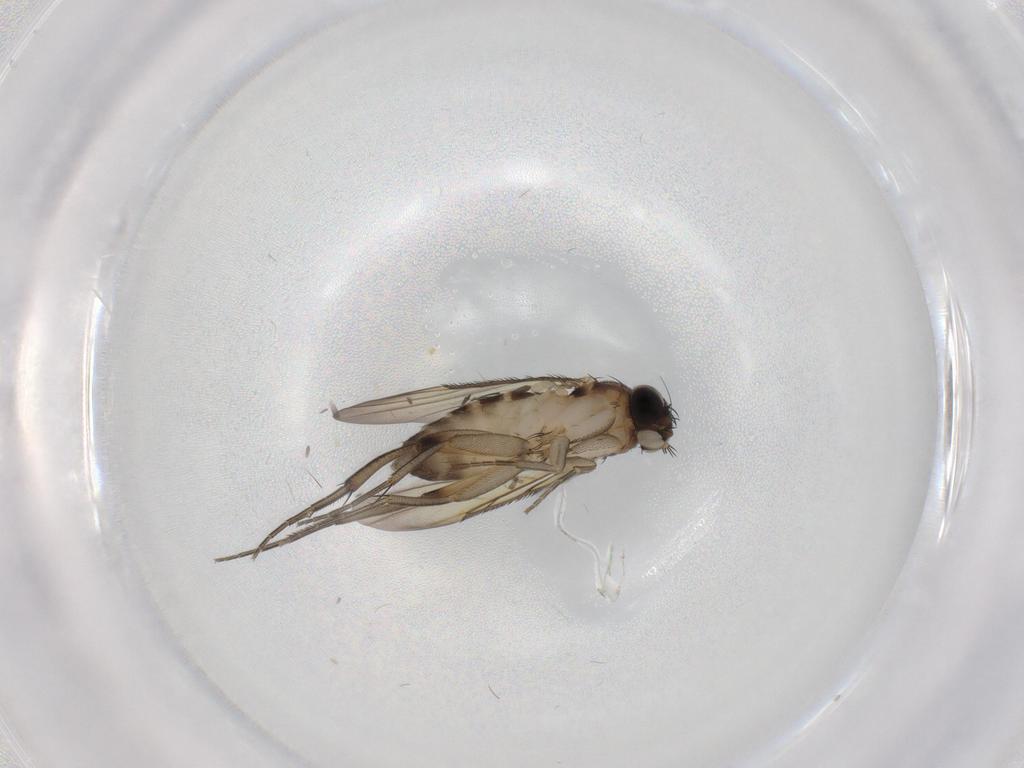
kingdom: Animalia
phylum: Arthropoda
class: Insecta
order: Diptera
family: Phoridae
